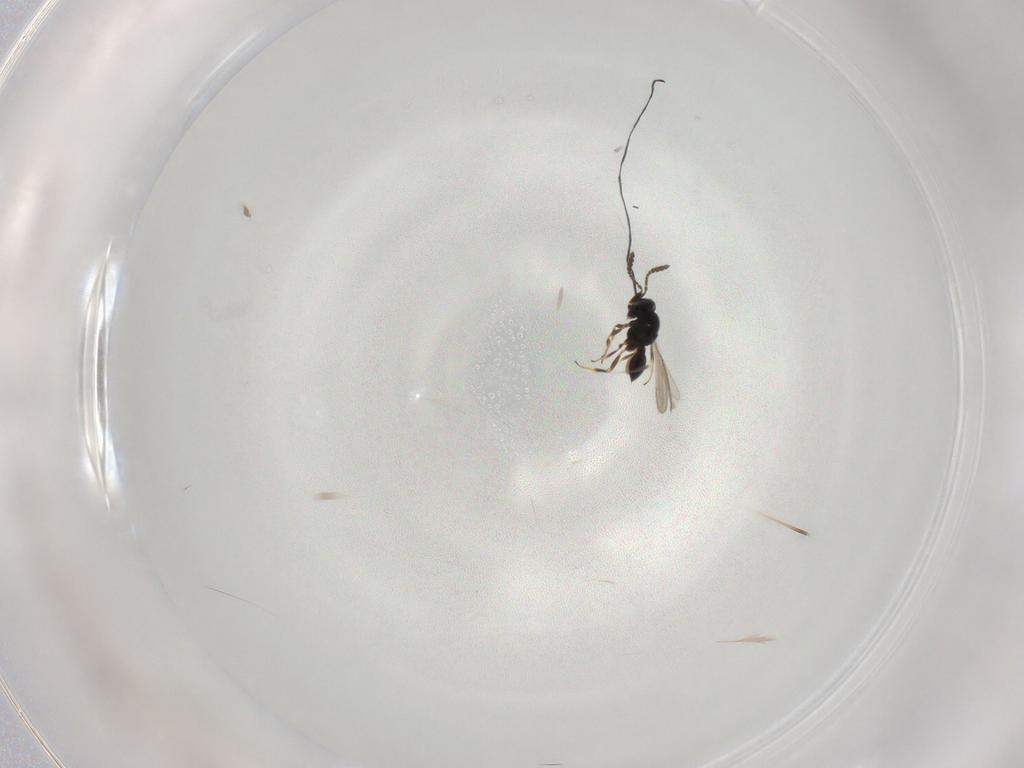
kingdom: Animalia
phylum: Arthropoda
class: Insecta
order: Hymenoptera
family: Scelionidae
